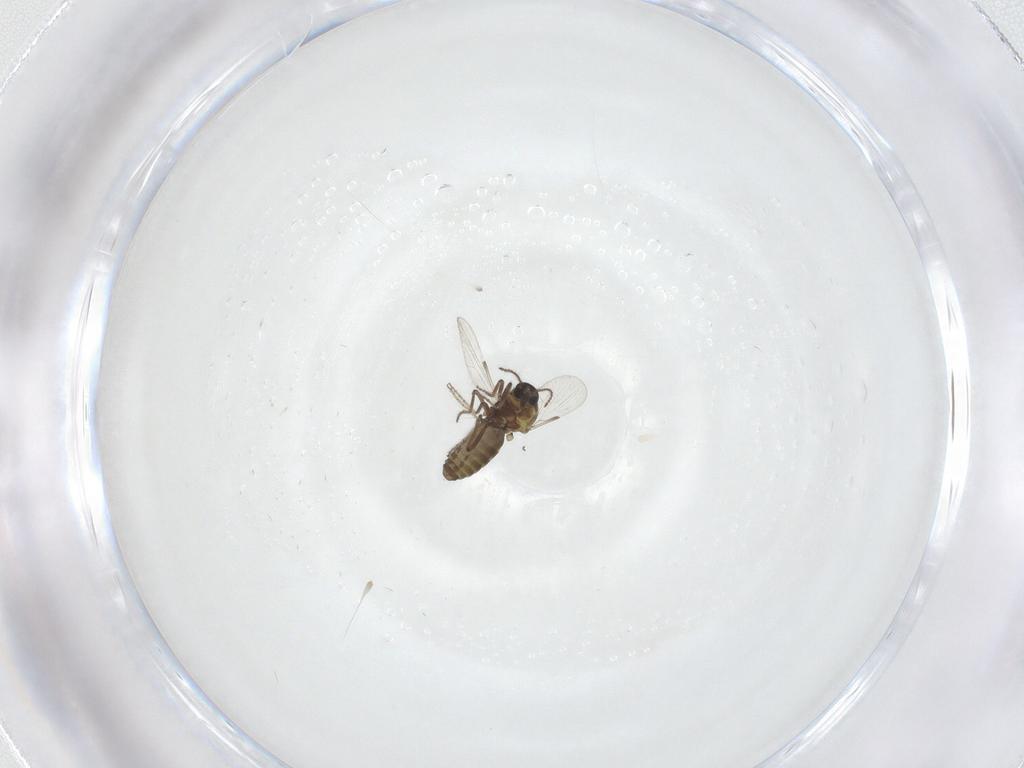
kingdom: Animalia
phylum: Arthropoda
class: Insecta
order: Diptera
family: Ceratopogonidae
